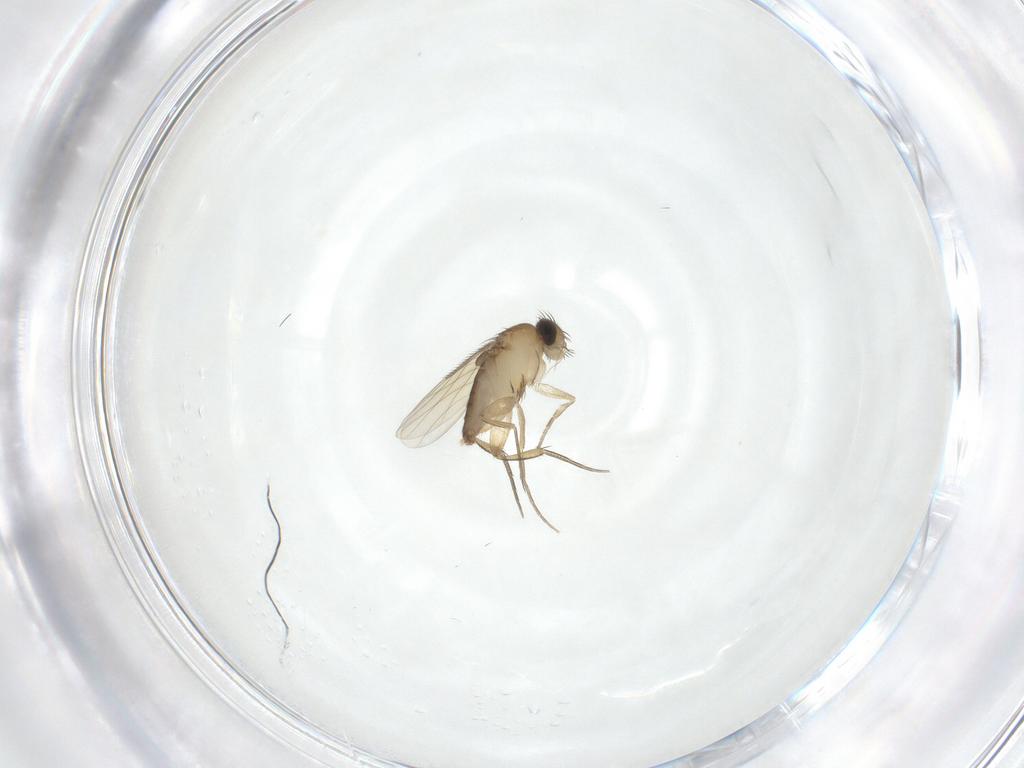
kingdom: Animalia
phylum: Arthropoda
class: Insecta
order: Diptera
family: Phoridae
